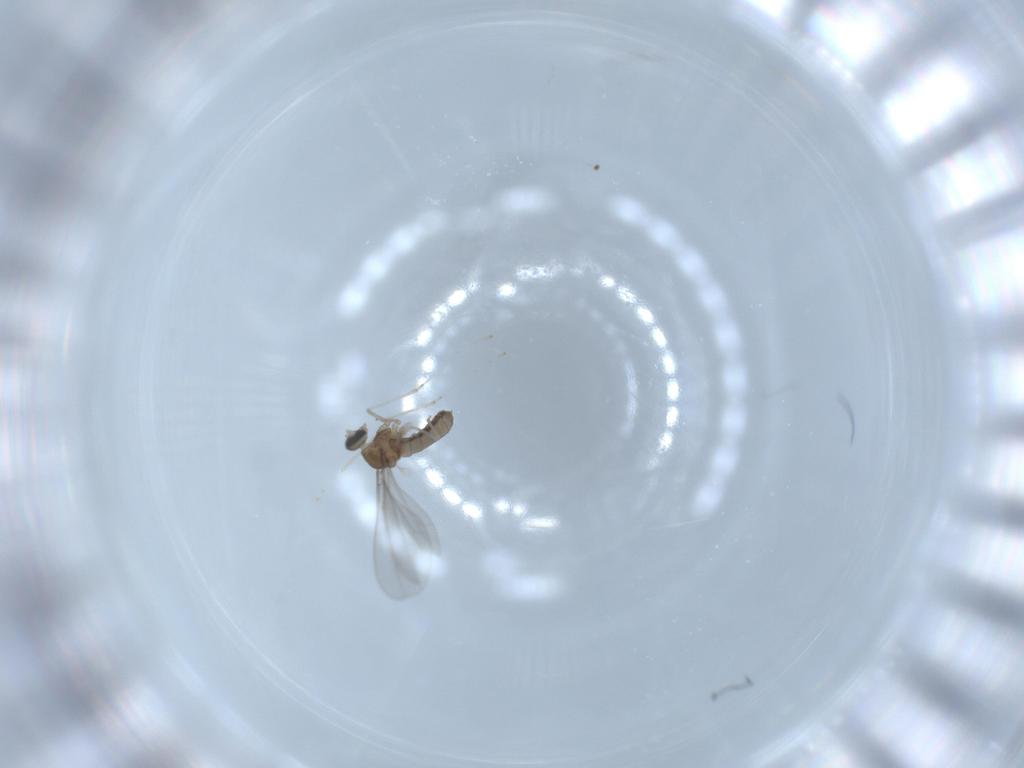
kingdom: Animalia
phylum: Arthropoda
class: Insecta
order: Diptera
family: Cecidomyiidae
